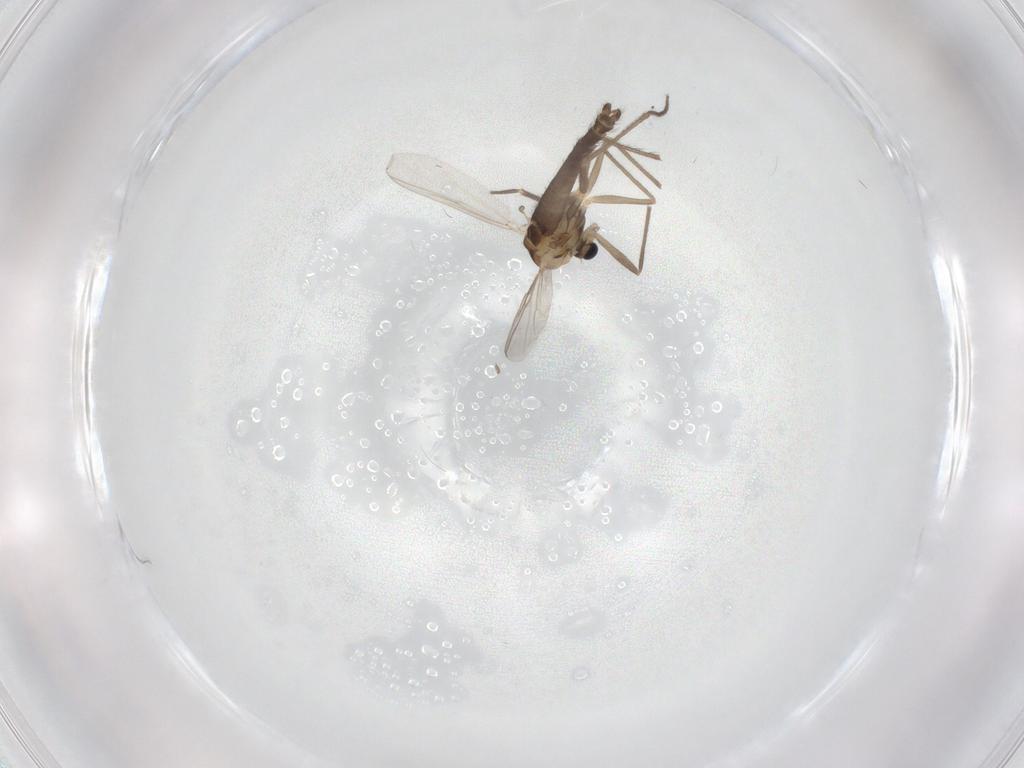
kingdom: Animalia
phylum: Arthropoda
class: Insecta
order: Diptera
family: Chironomidae
